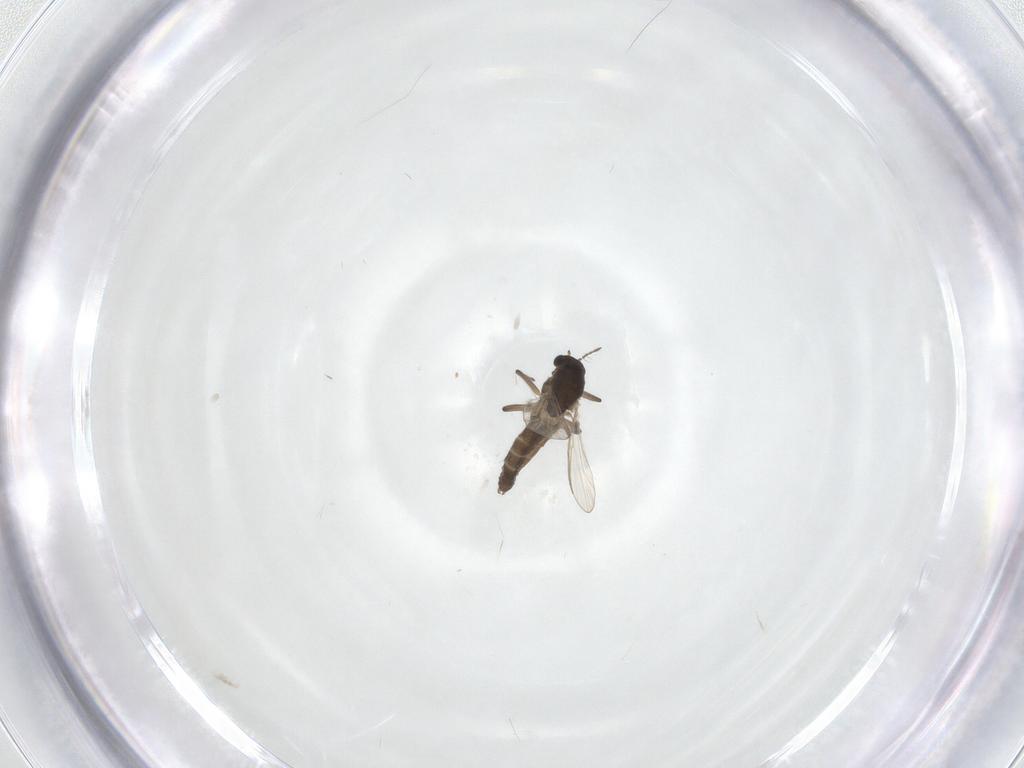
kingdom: Animalia
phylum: Arthropoda
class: Insecta
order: Diptera
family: Chironomidae
